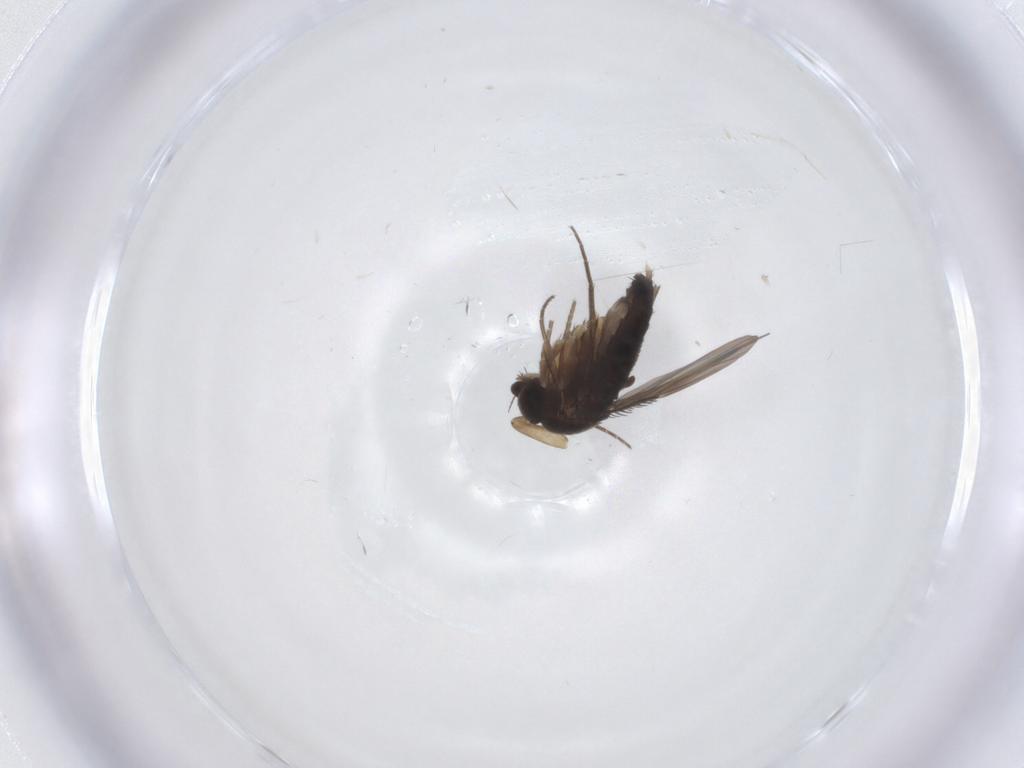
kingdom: Animalia
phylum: Arthropoda
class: Insecta
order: Diptera
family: Phoridae
